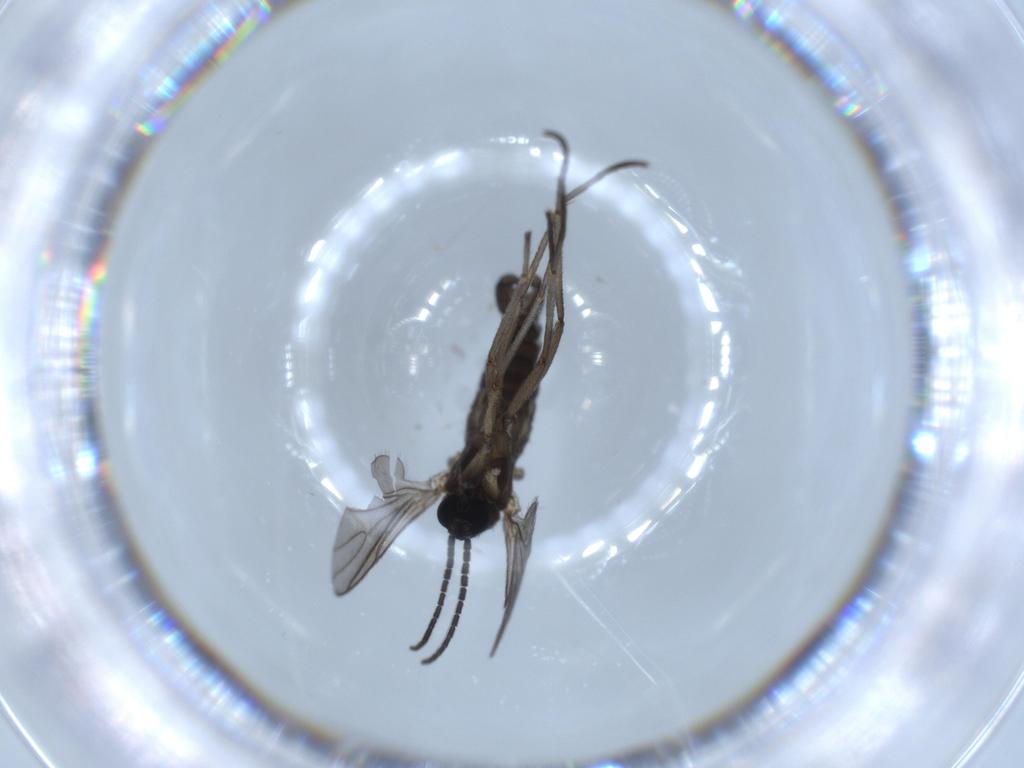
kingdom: Animalia
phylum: Arthropoda
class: Insecta
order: Diptera
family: Sciaridae
